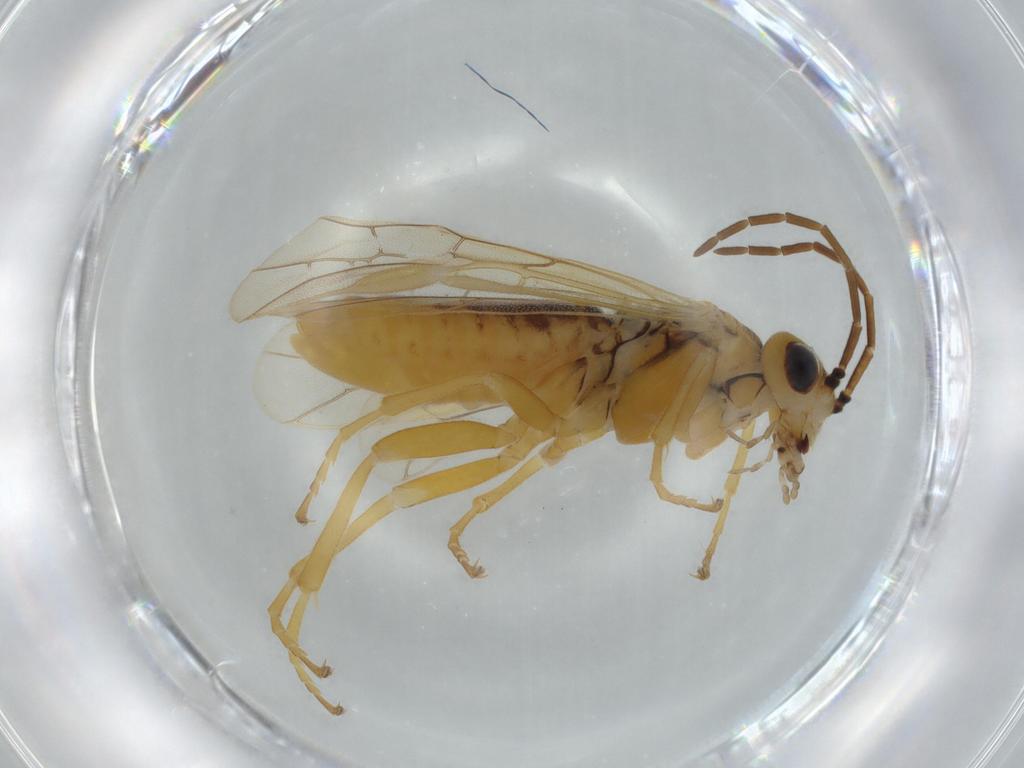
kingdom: Animalia
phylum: Arthropoda
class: Insecta
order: Hymenoptera
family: Tenthredinidae
